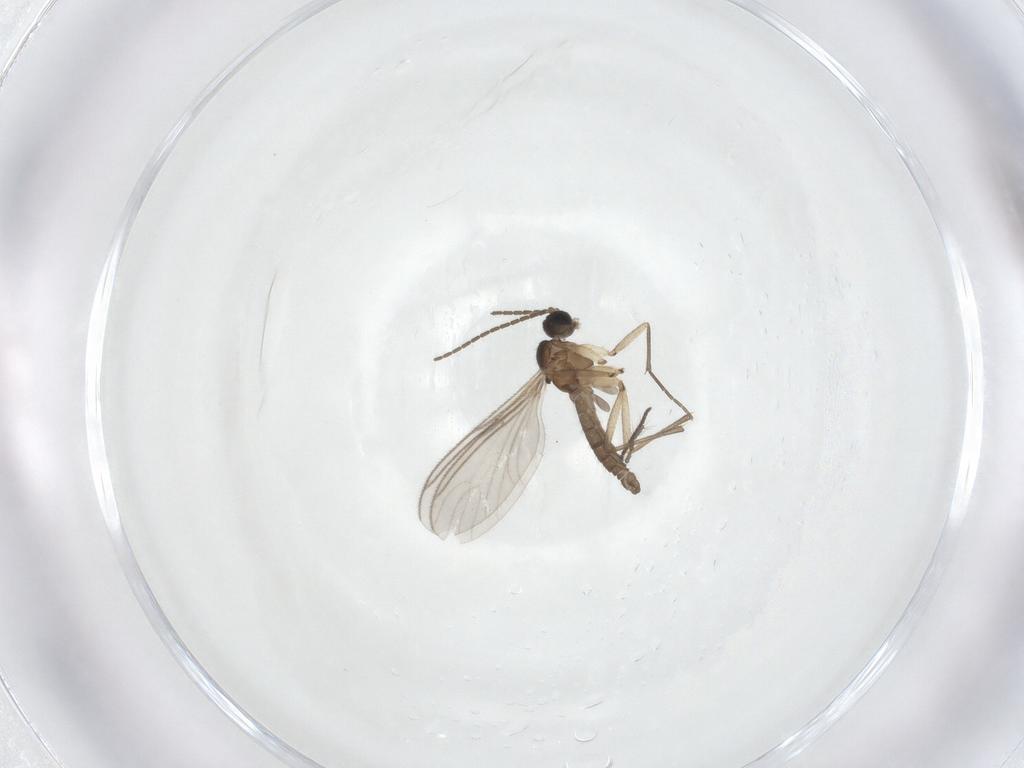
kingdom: Animalia
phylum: Arthropoda
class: Insecta
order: Diptera
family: Sciaridae
